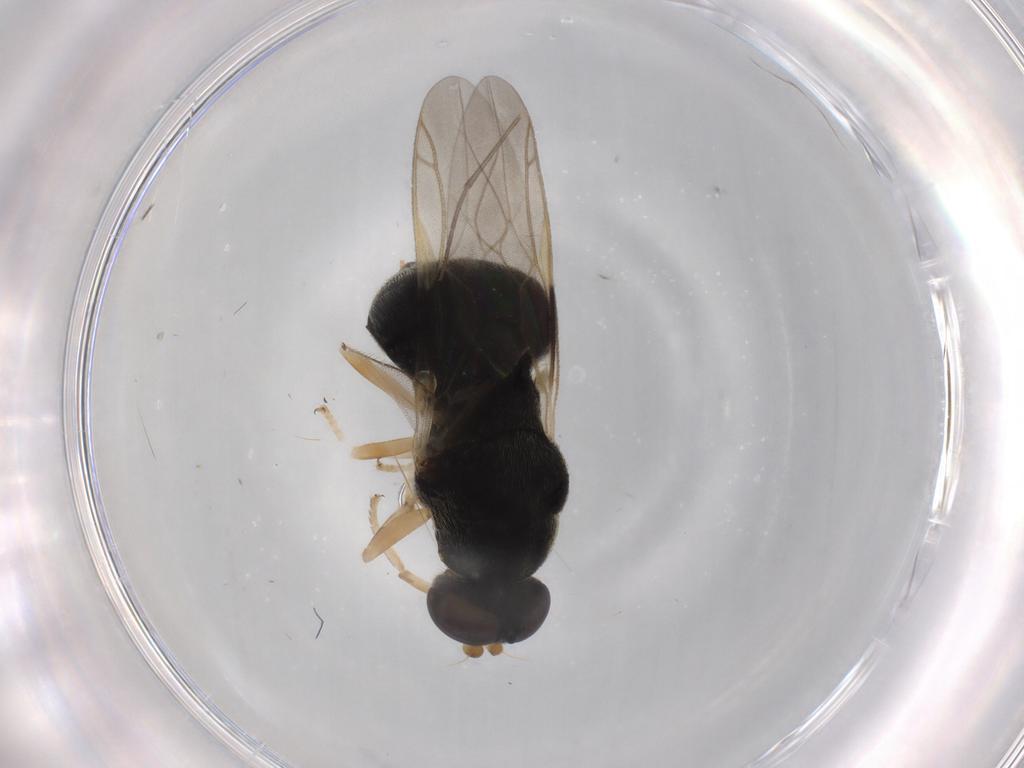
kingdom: Animalia
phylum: Arthropoda
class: Insecta
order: Diptera
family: Stratiomyidae
